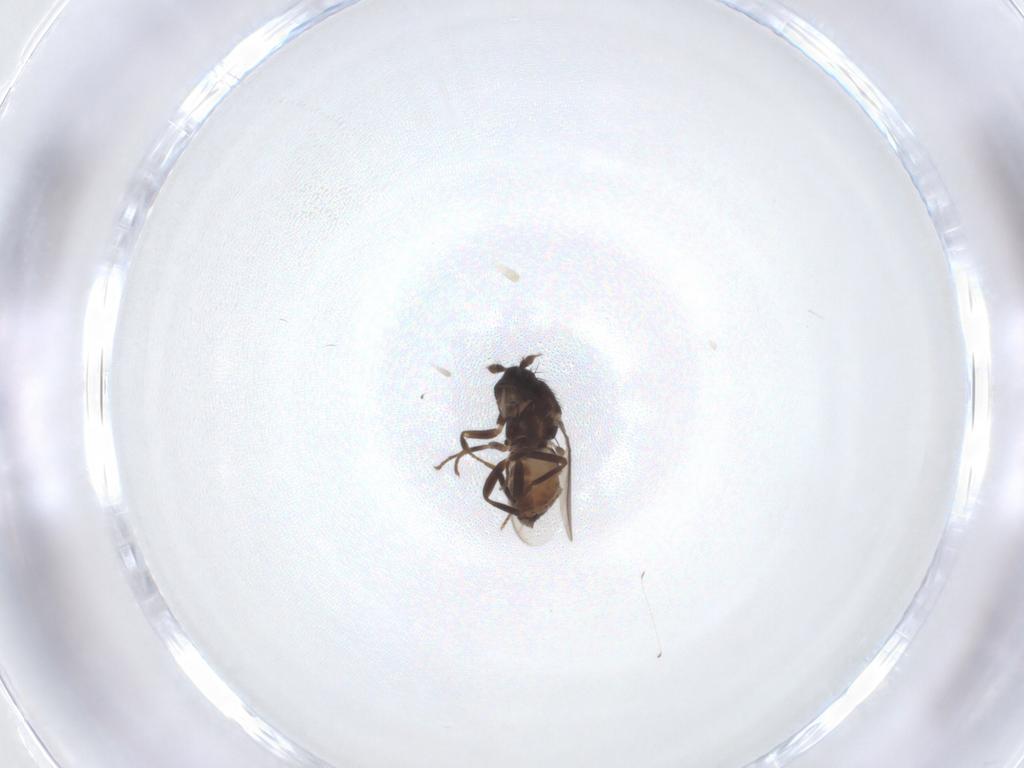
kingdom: Animalia
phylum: Arthropoda
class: Insecta
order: Diptera
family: Sphaeroceridae
